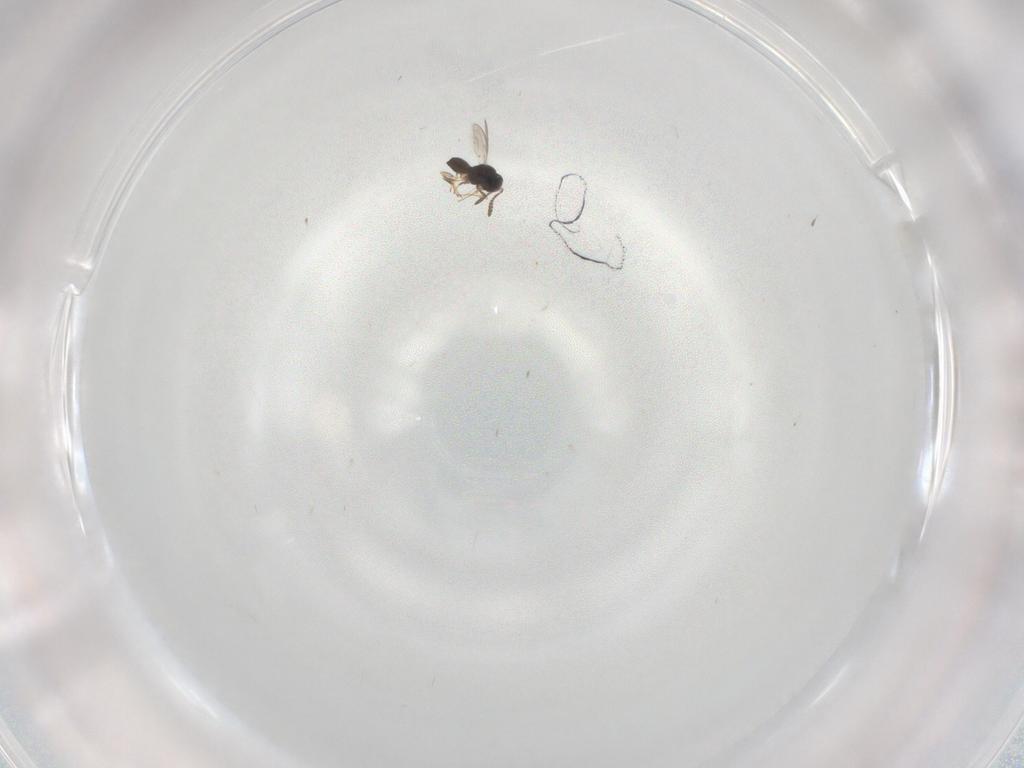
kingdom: Animalia
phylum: Arthropoda
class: Insecta
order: Hymenoptera
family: Scelionidae
